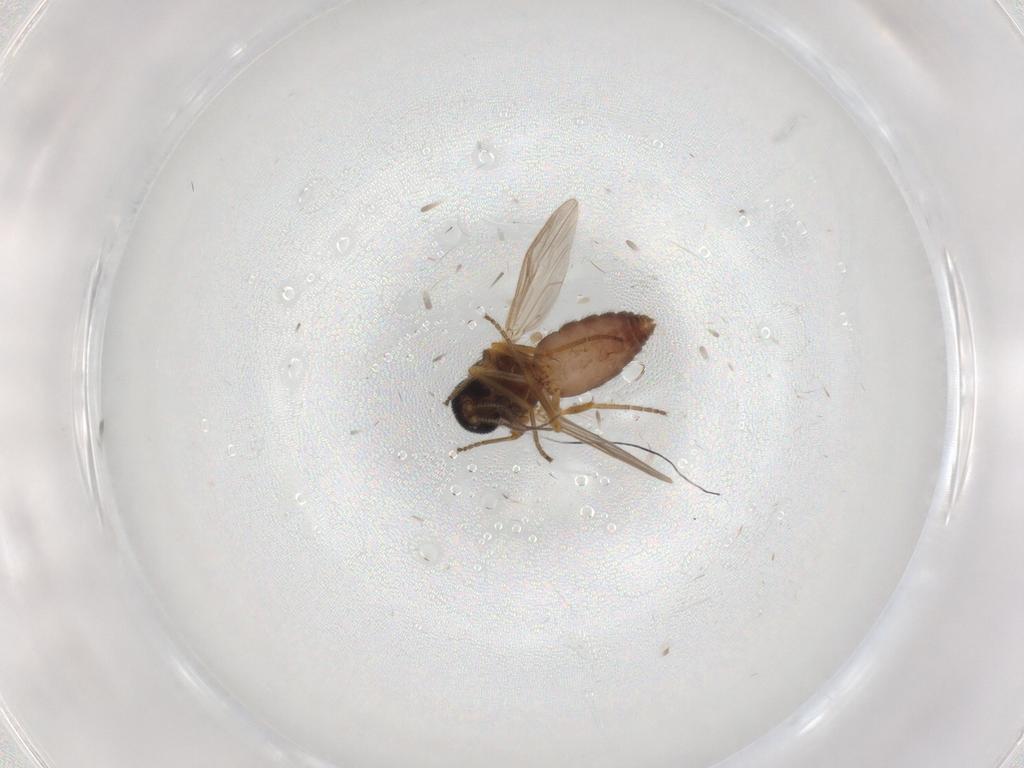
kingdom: Animalia
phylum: Arthropoda
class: Insecta
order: Diptera
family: Ceratopogonidae
